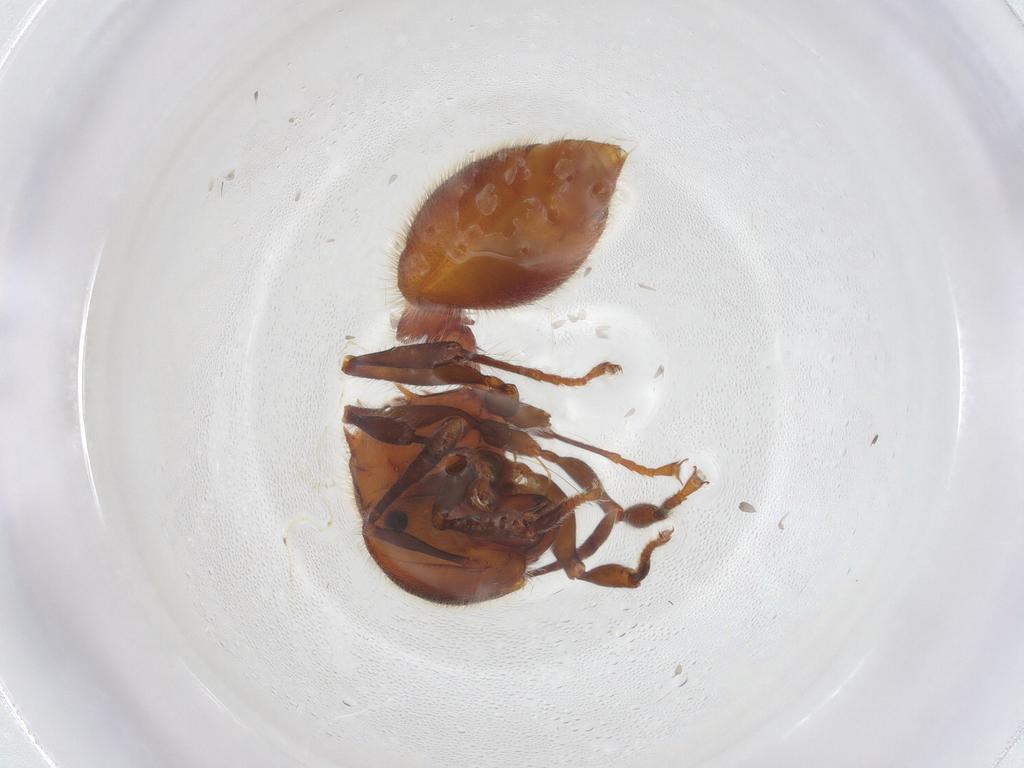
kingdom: Animalia
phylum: Arthropoda
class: Insecta
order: Hymenoptera
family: Formicidae
